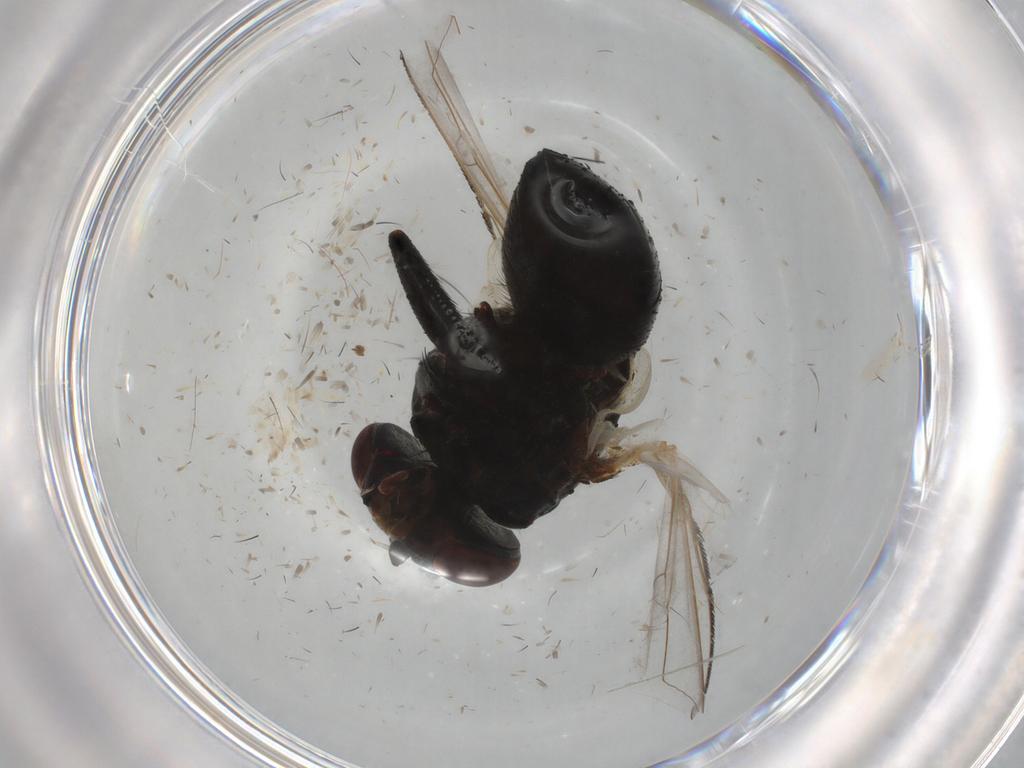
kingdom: Animalia
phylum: Arthropoda
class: Insecta
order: Diptera
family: Tachinidae
